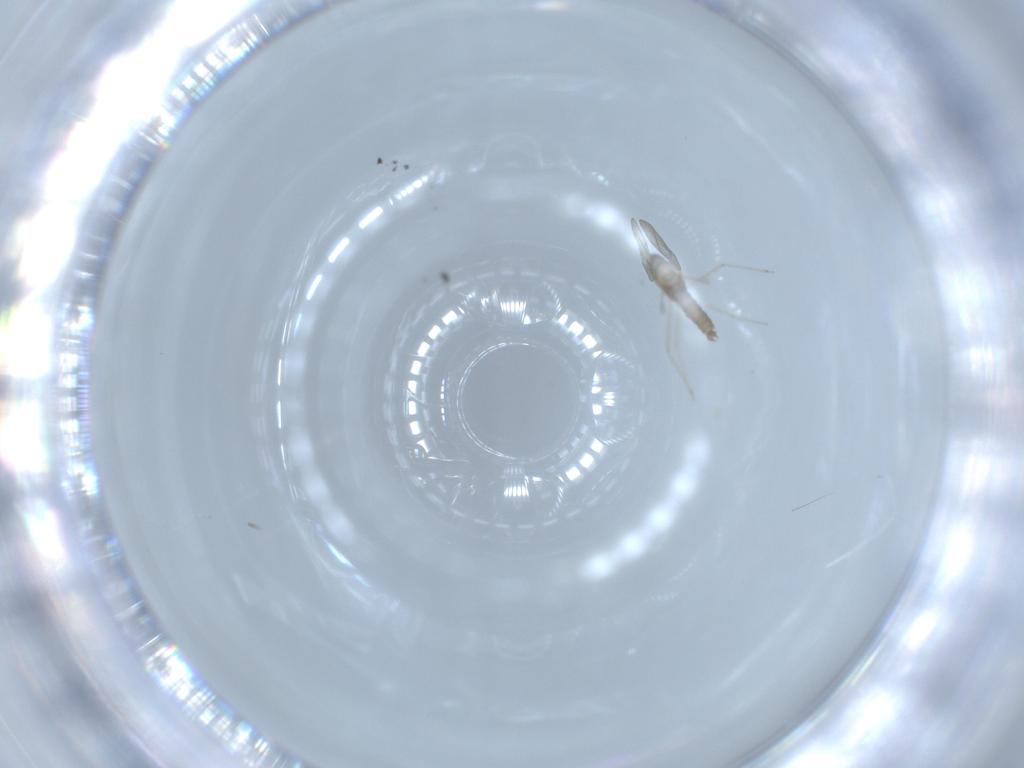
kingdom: Animalia
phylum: Arthropoda
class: Insecta
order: Diptera
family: Cecidomyiidae
